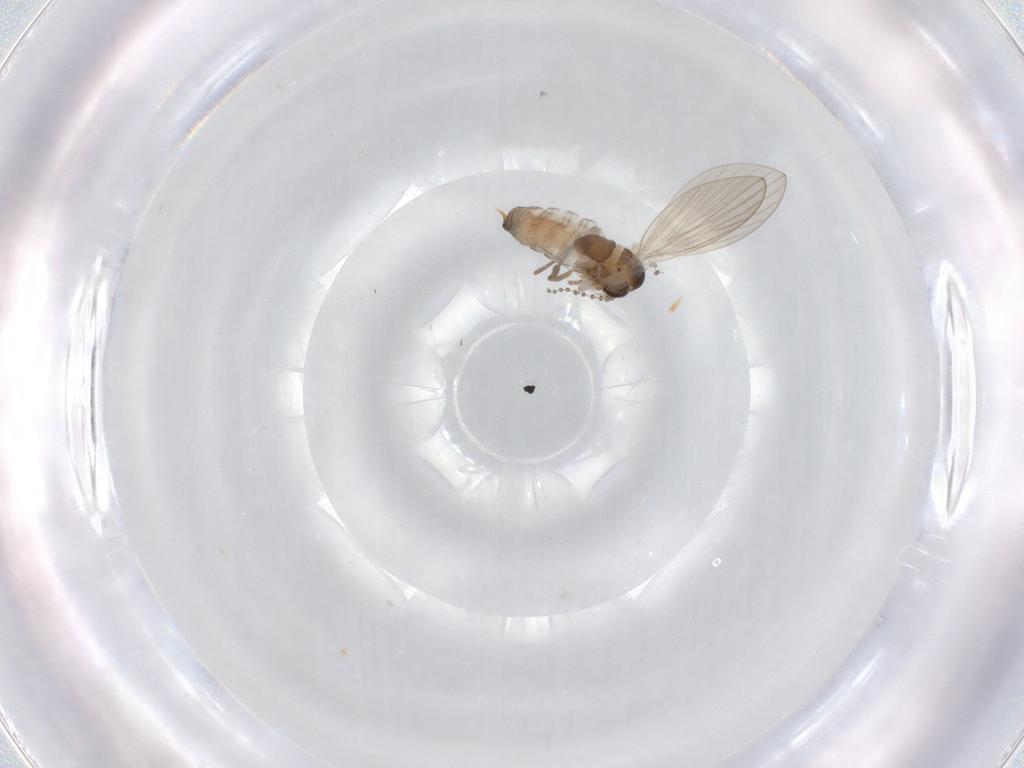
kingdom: Animalia
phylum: Arthropoda
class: Insecta
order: Diptera
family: Psychodidae
